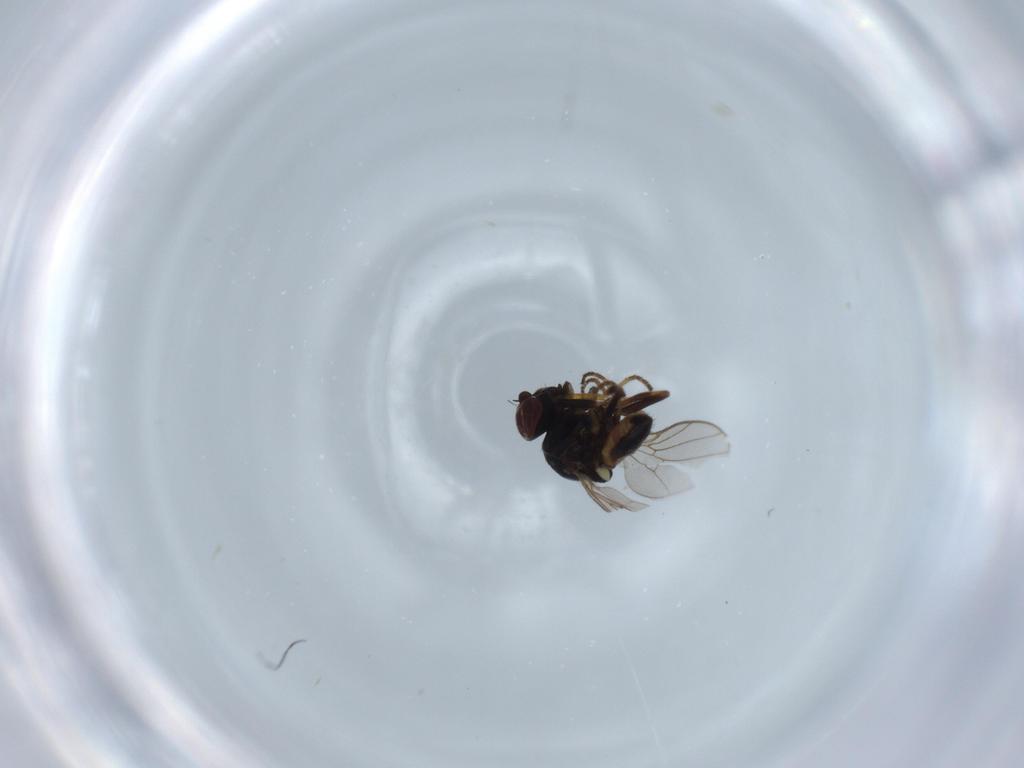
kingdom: Animalia
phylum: Arthropoda
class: Insecta
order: Diptera
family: Chloropidae
